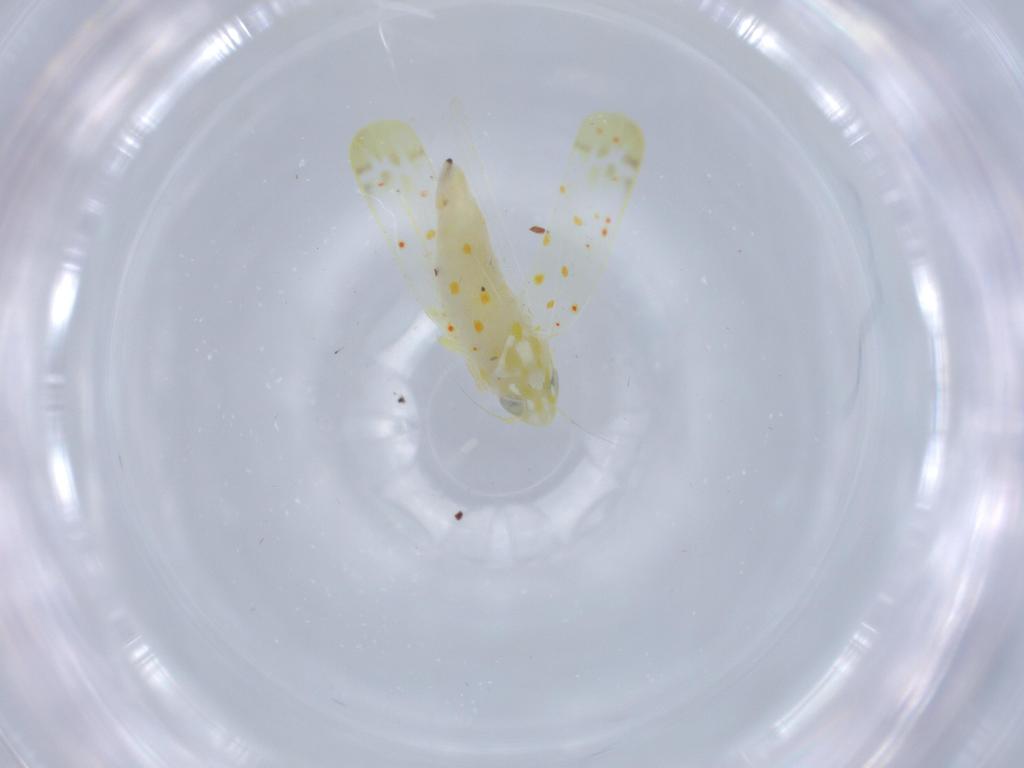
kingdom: Animalia
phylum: Arthropoda
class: Insecta
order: Hemiptera
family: Cicadellidae
